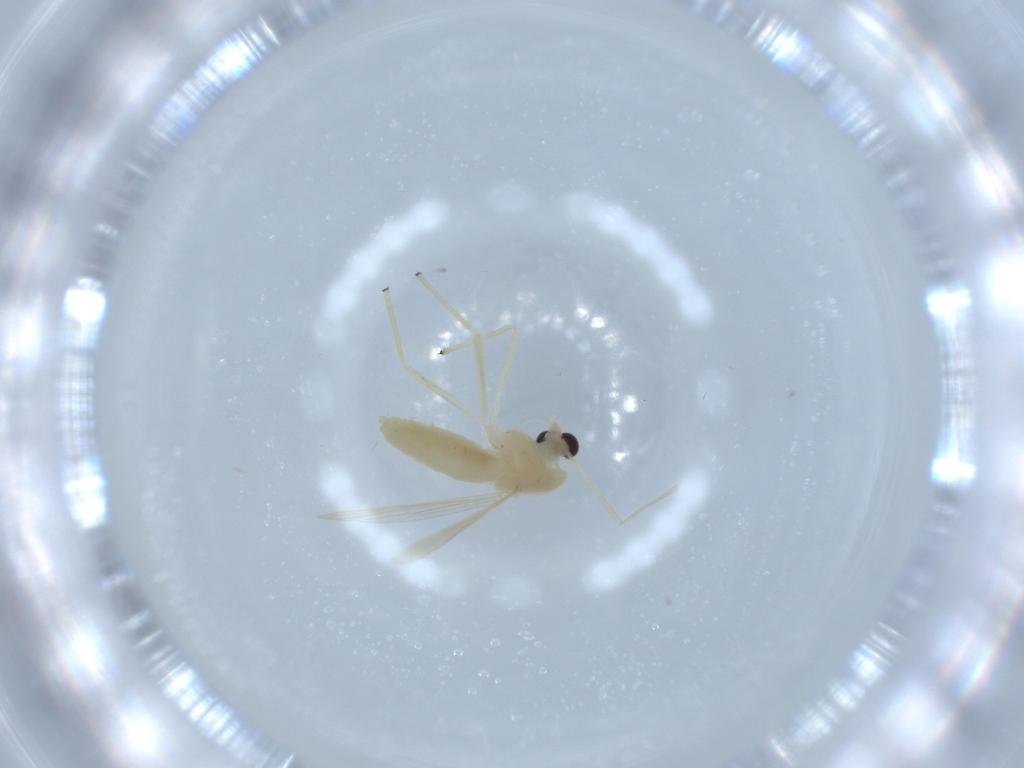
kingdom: Animalia
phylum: Arthropoda
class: Insecta
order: Diptera
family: Chironomidae
